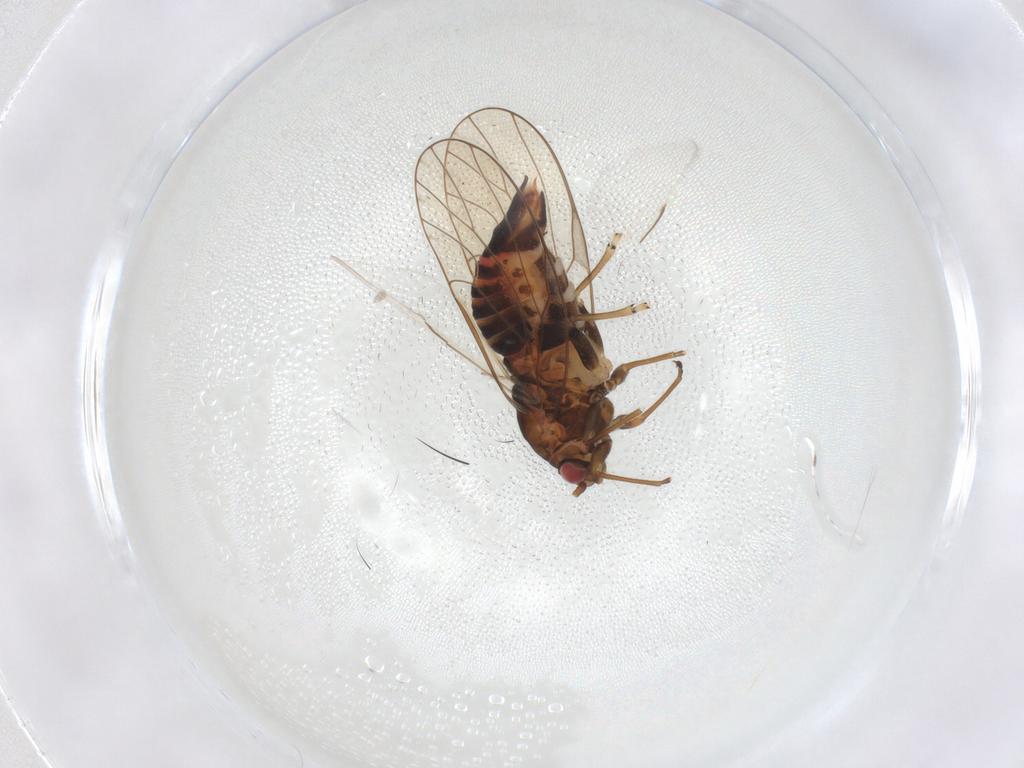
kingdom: Animalia
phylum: Arthropoda
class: Insecta
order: Hemiptera
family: Psyllidae
